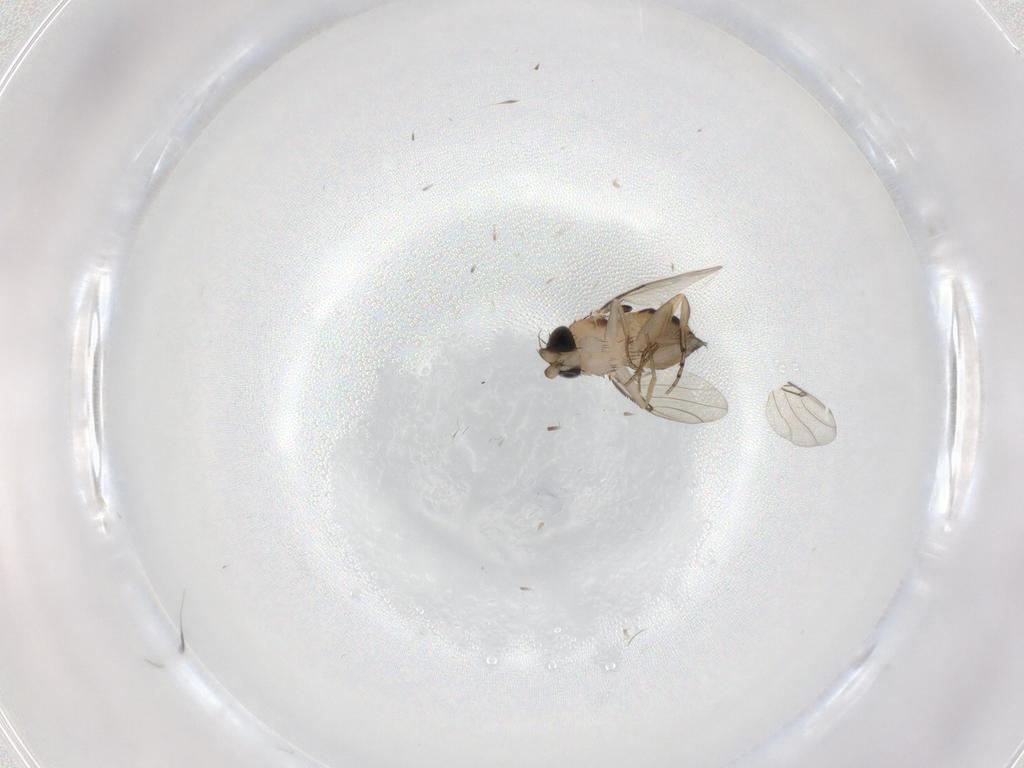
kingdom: Animalia
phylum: Arthropoda
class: Insecta
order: Diptera
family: Phoridae
